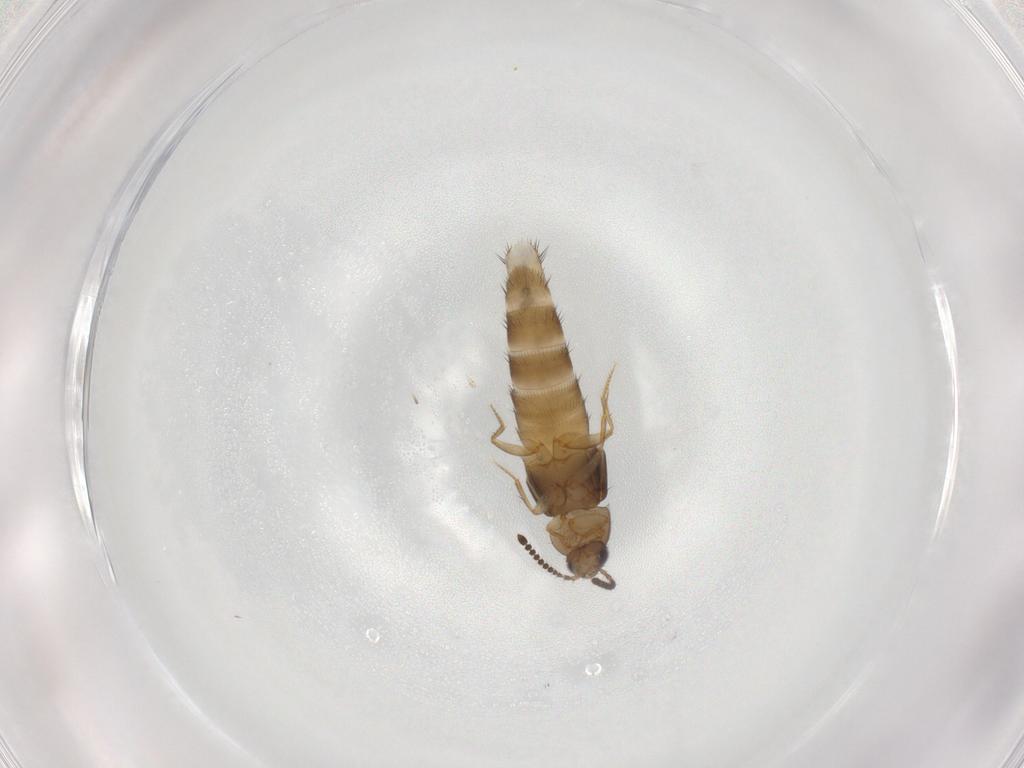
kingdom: Animalia
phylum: Arthropoda
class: Insecta
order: Coleoptera
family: Staphylinidae
